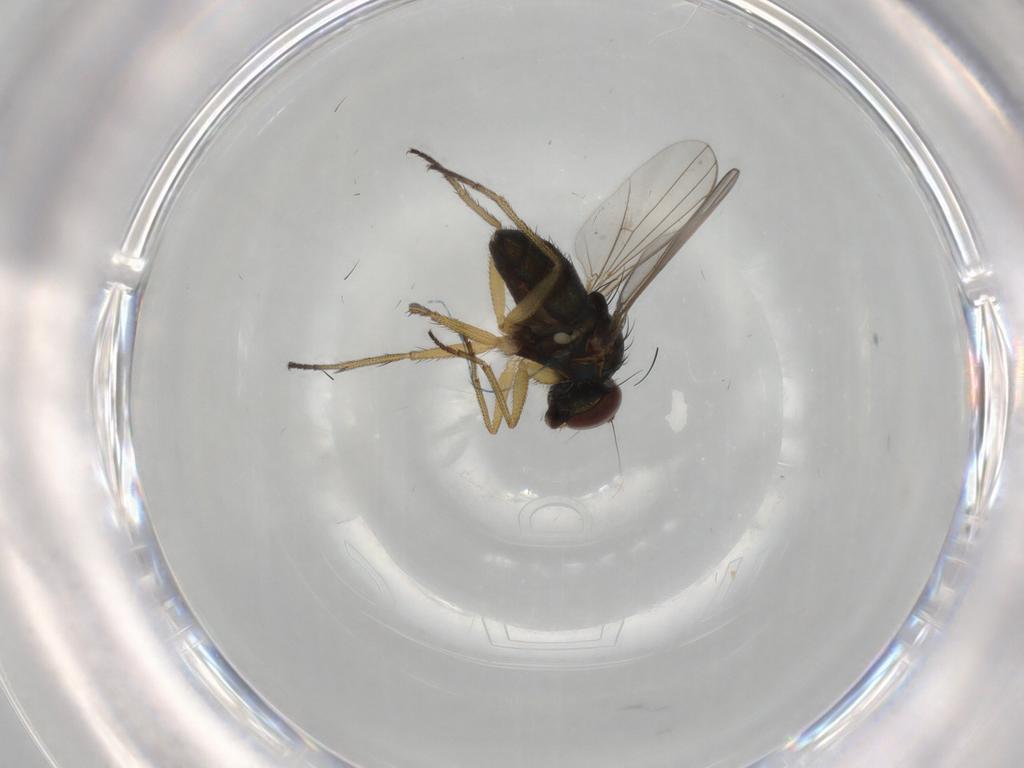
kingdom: Animalia
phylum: Arthropoda
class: Insecta
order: Diptera
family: Dolichopodidae
